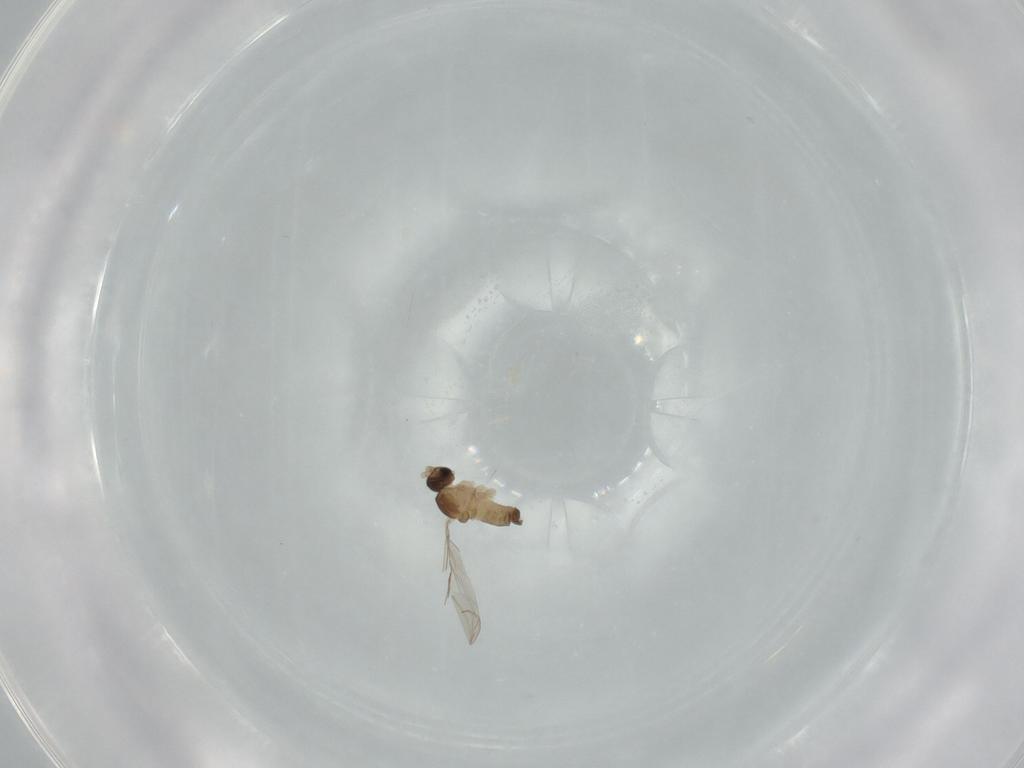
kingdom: Animalia
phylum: Arthropoda
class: Insecta
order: Diptera
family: Cecidomyiidae
